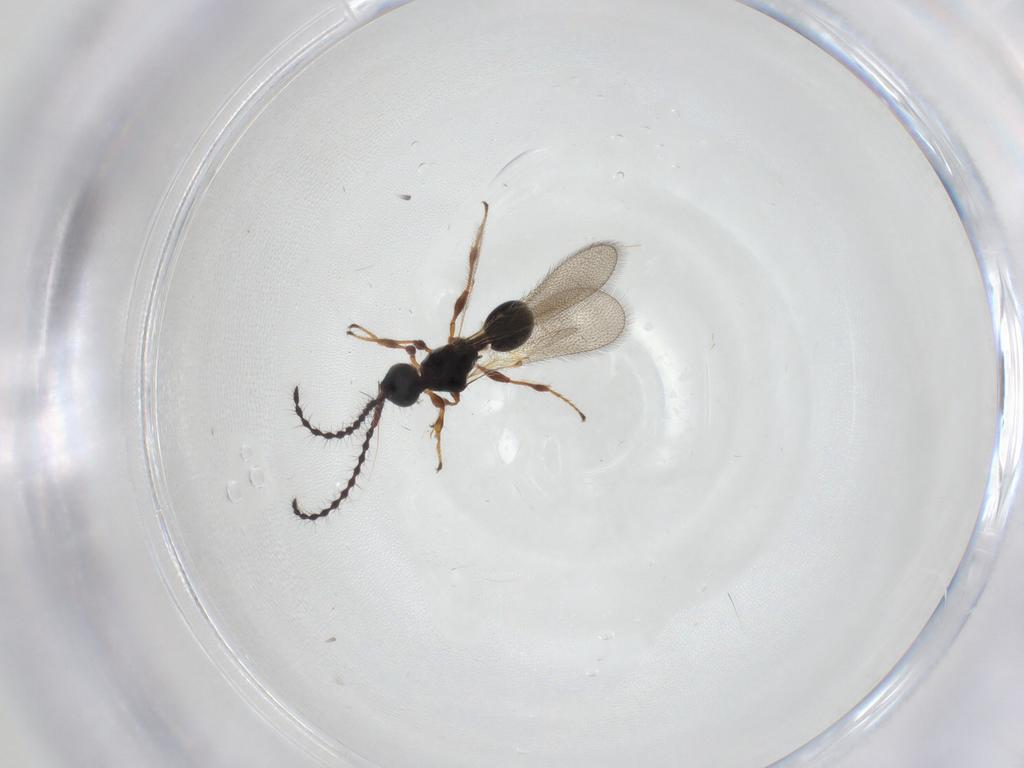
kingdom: Animalia
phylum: Arthropoda
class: Insecta
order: Hymenoptera
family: Diapriidae
